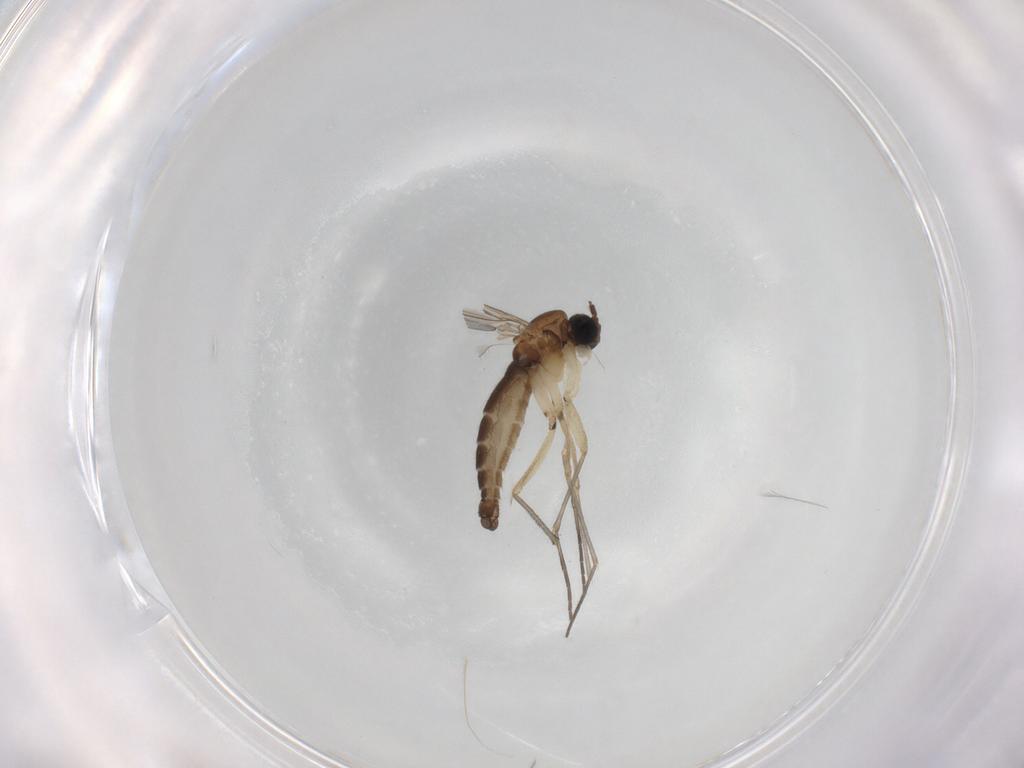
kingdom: Animalia
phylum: Arthropoda
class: Insecta
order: Diptera
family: Sciaridae
